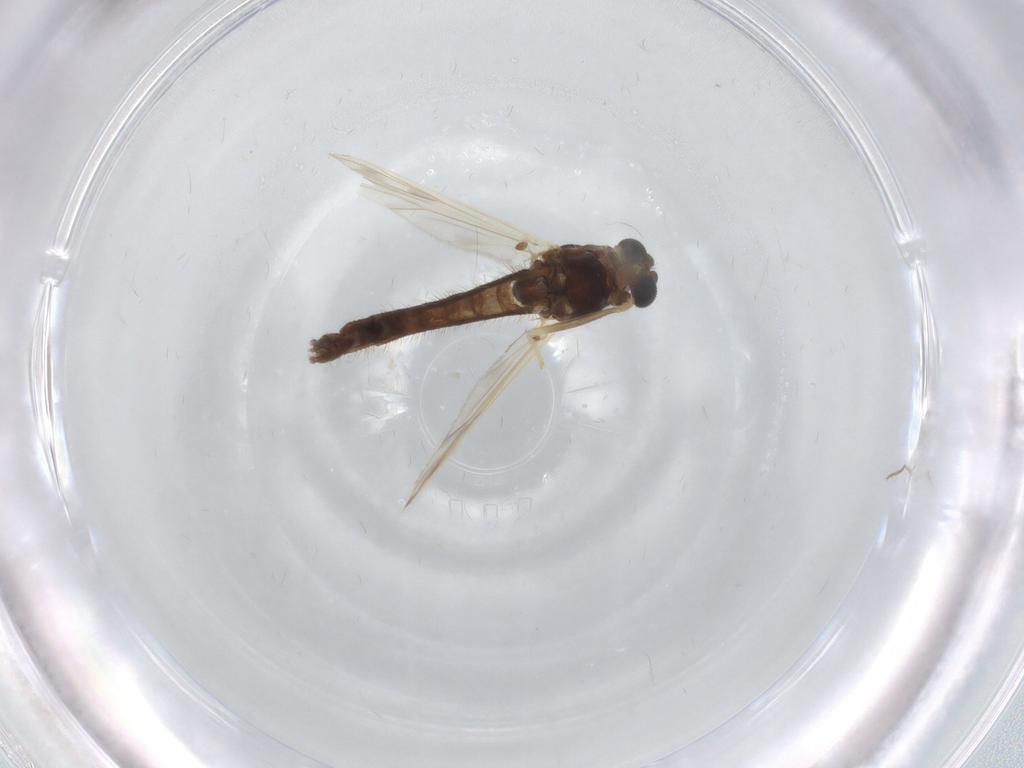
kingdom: Animalia
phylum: Arthropoda
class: Insecta
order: Diptera
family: Chironomidae
